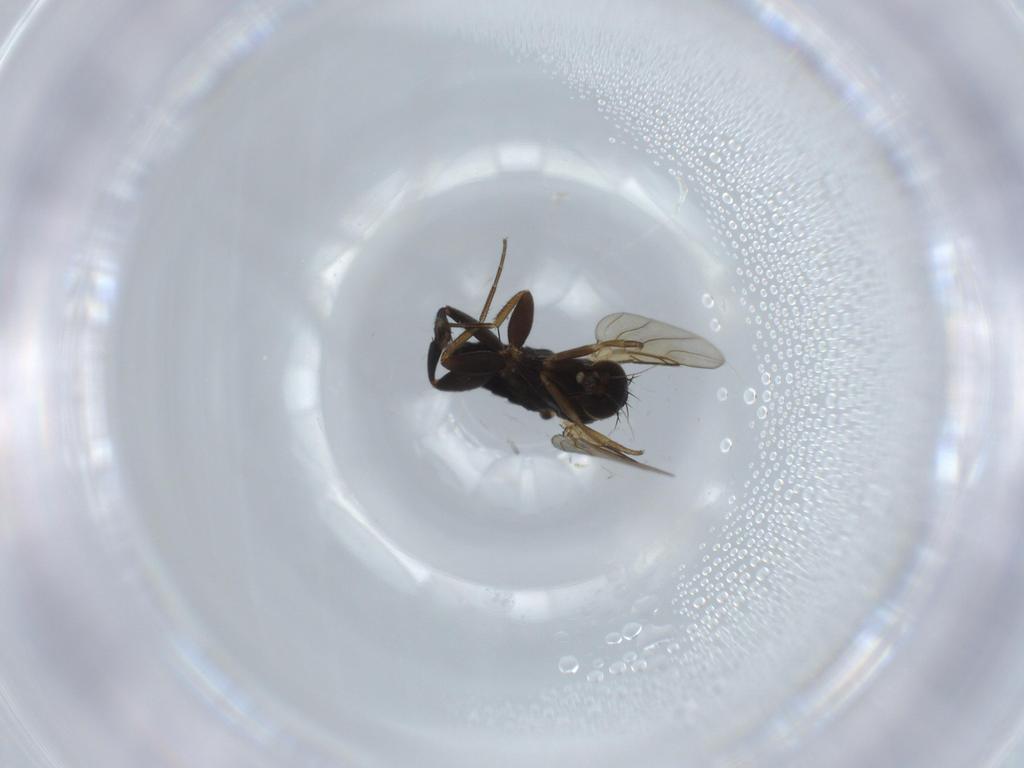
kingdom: Animalia
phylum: Arthropoda
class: Insecta
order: Diptera
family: Phoridae
